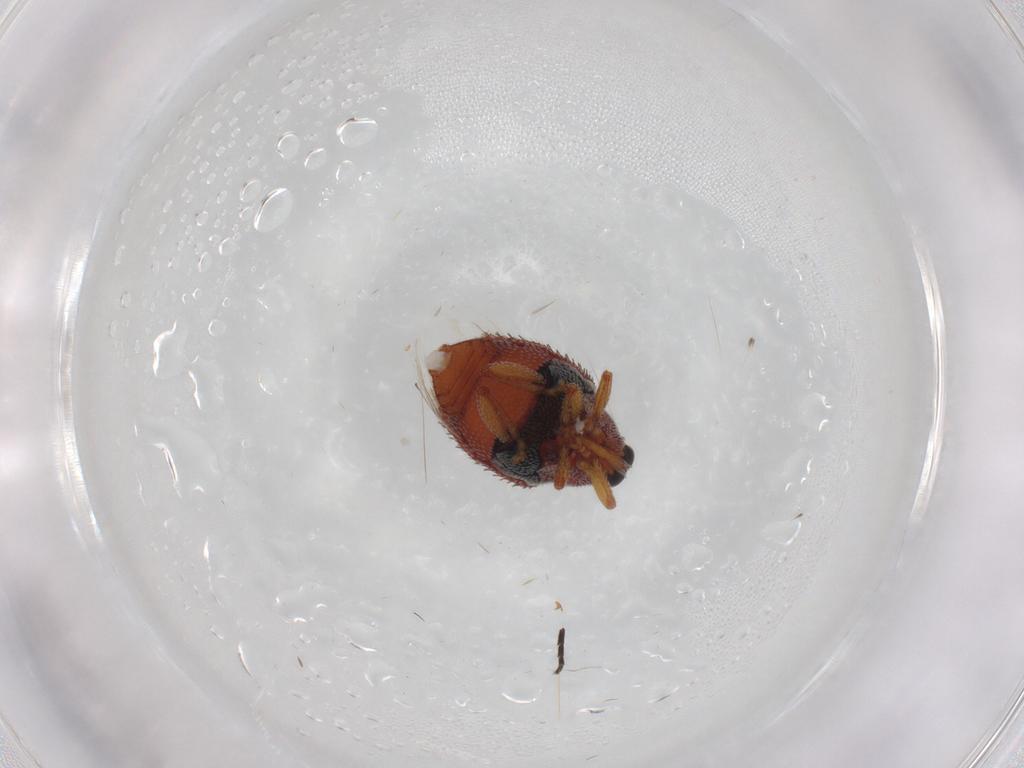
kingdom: Animalia
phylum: Arthropoda
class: Insecta
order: Coleoptera
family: Curculionidae
